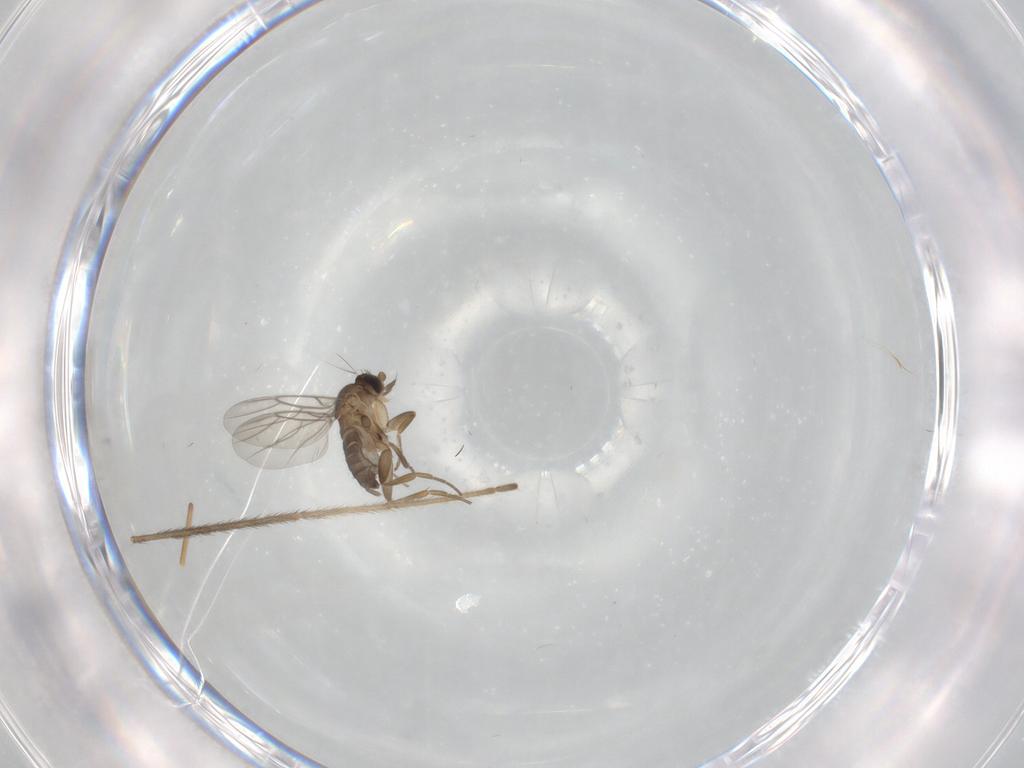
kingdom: Animalia
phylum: Arthropoda
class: Insecta
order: Diptera
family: Phoridae
